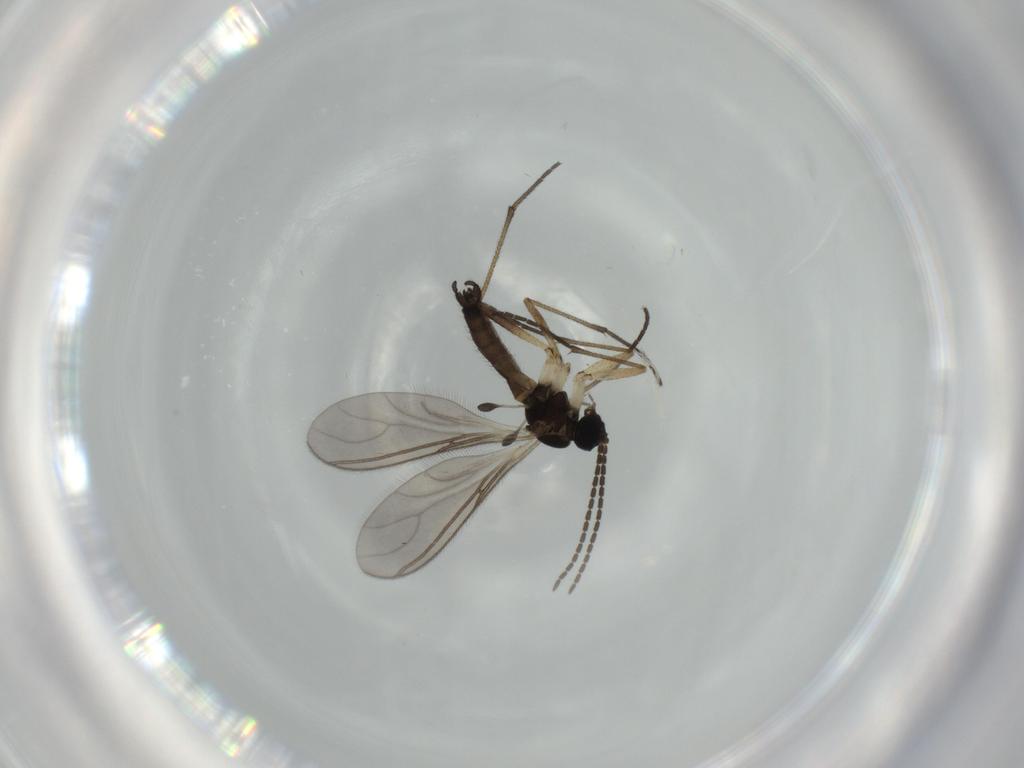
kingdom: Animalia
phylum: Arthropoda
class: Insecta
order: Diptera
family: Sciaridae
